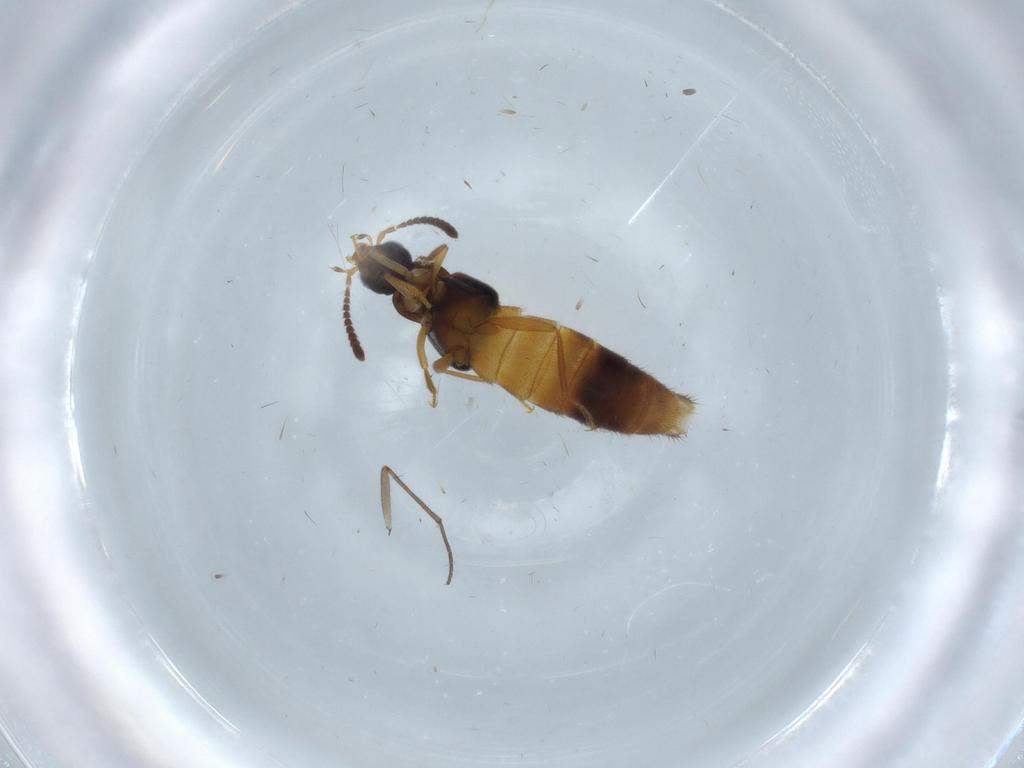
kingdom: Animalia
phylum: Arthropoda
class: Insecta
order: Coleoptera
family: Staphylinidae
